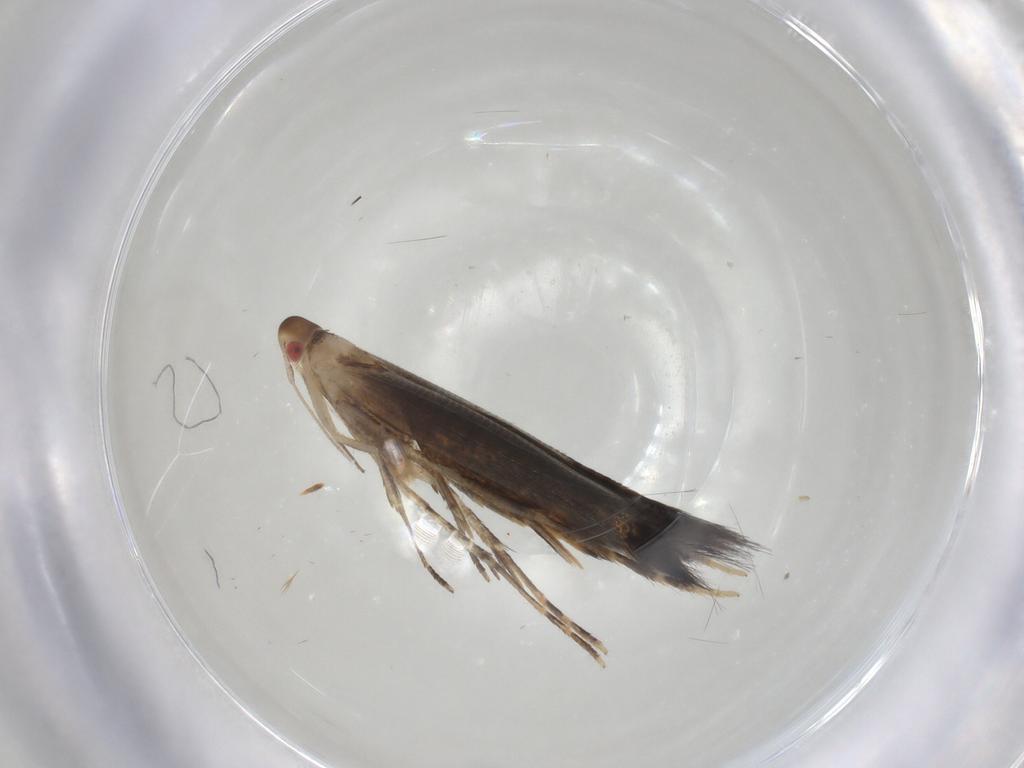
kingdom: Animalia
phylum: Arthropoda
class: Insecta
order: Lepidoptera
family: Cosmopterigidae
